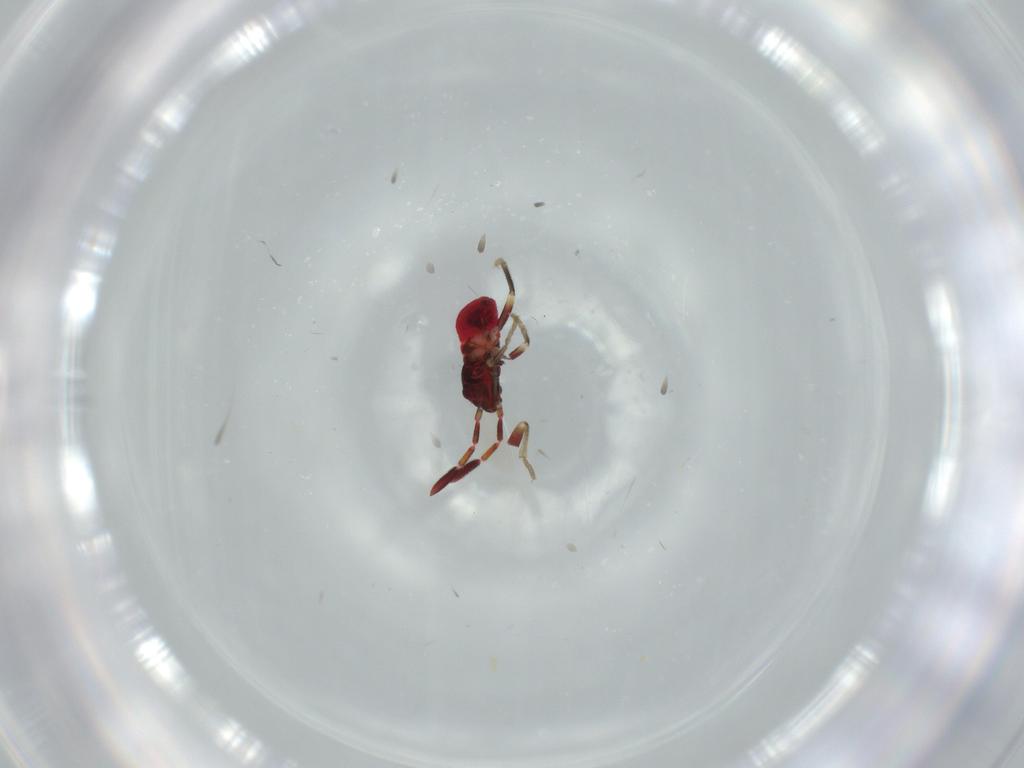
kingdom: Animalia
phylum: Arthropoda
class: Insecta
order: Hemiptera
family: Rhyparochromidae
